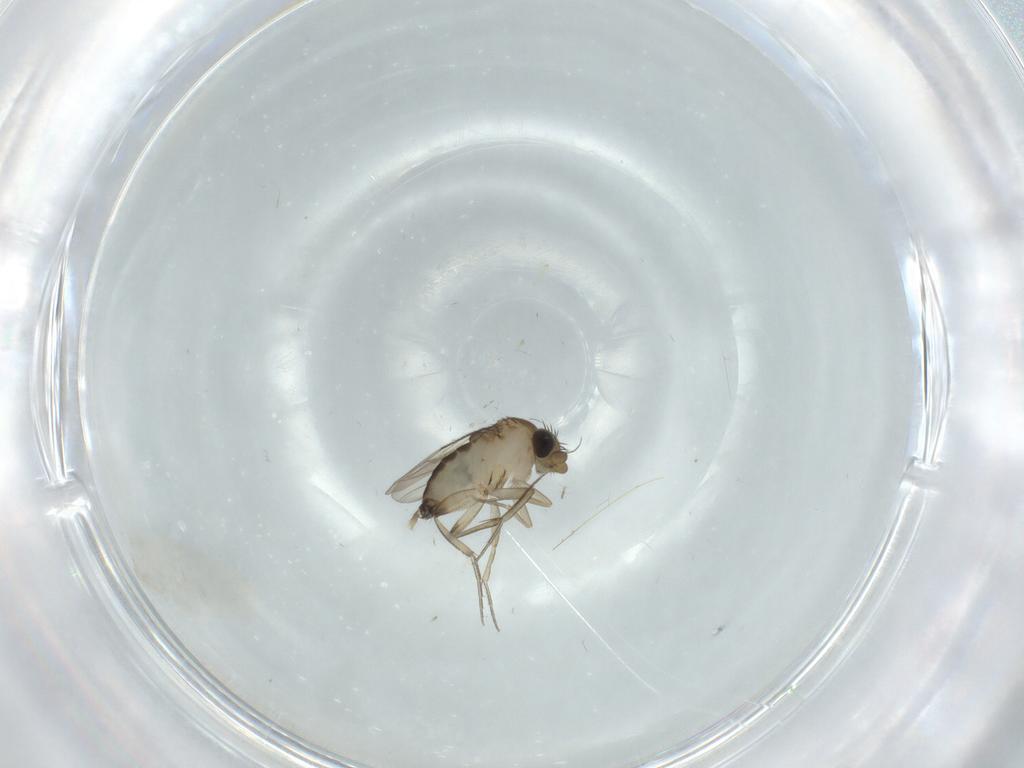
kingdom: Animalia
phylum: Arthropoda
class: Insecta
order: Diptera
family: Phoridae
